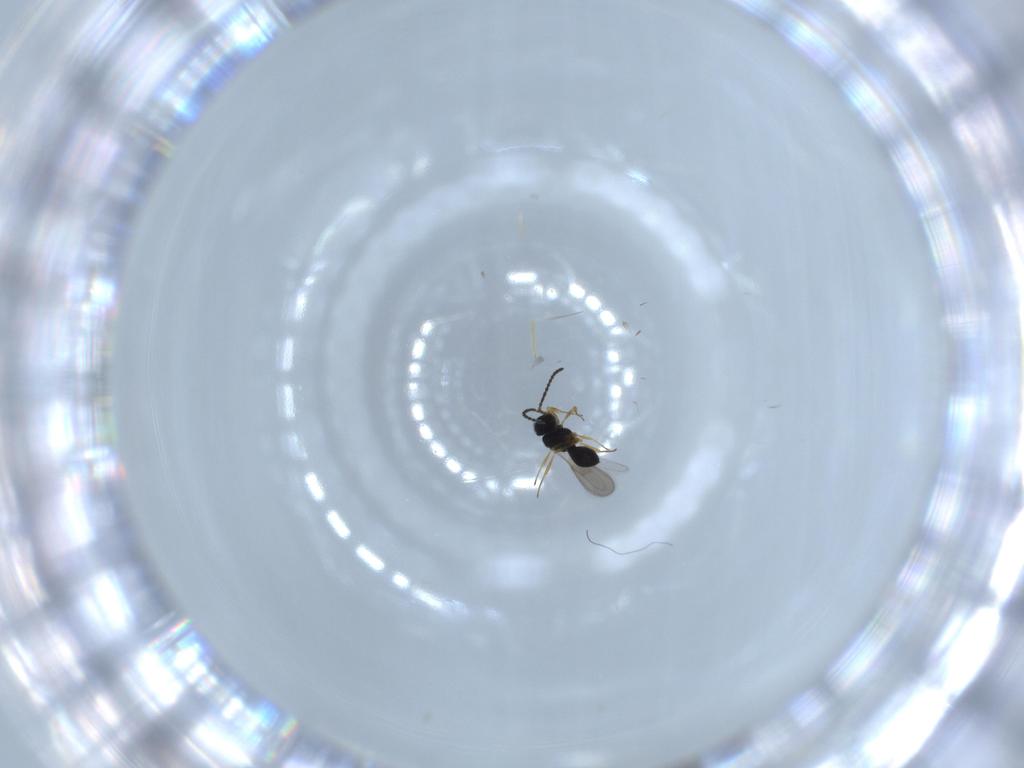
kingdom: Animalia
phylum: Arthropoda
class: Insecta
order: Hymenoptera
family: Scelionidae
